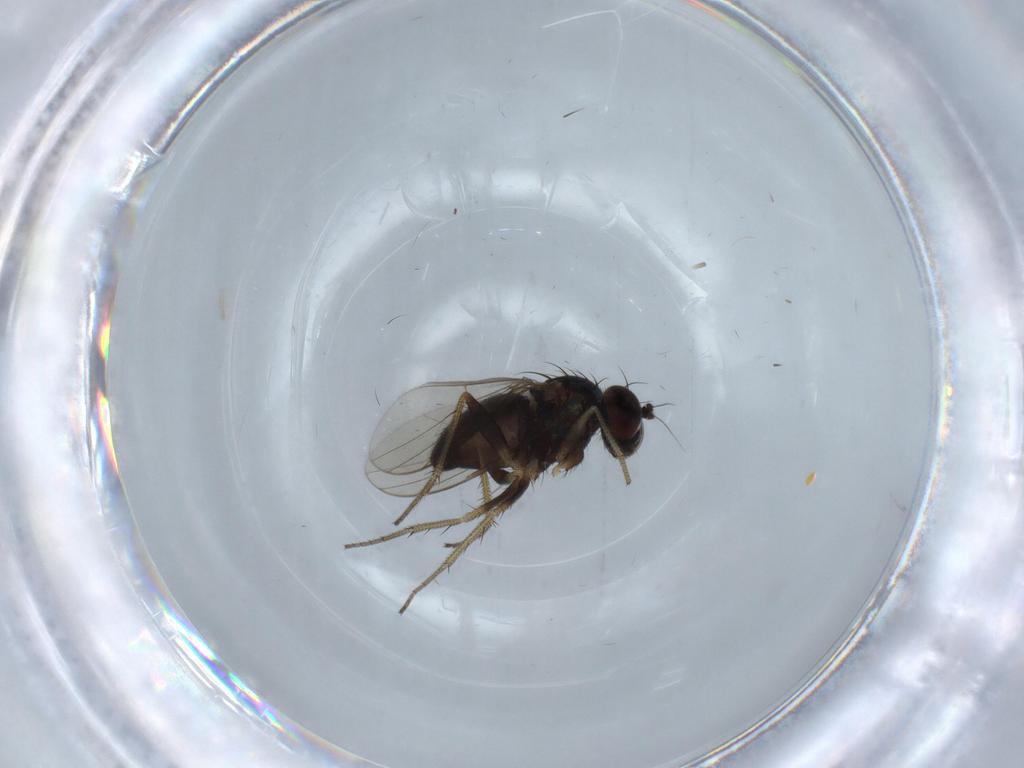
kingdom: Animalia
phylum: Arthropoda
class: Insecta
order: Diptera
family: Chironomidae
